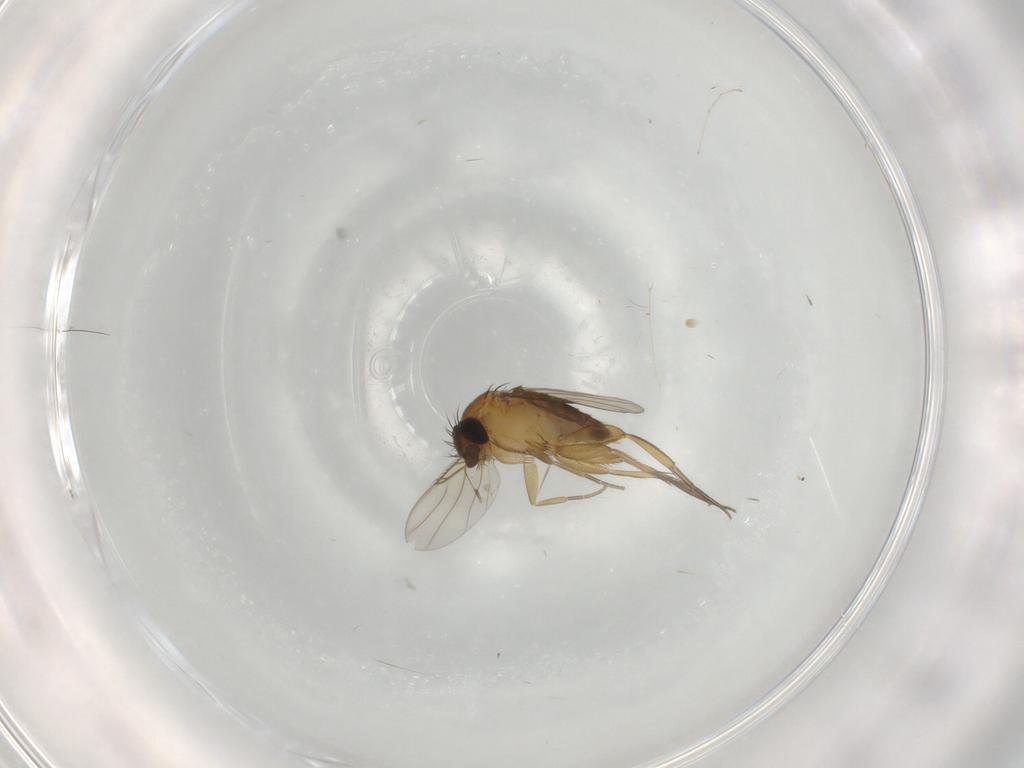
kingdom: Animalia
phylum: Arthropoda
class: Insecta
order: Diptera
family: Phoridae
